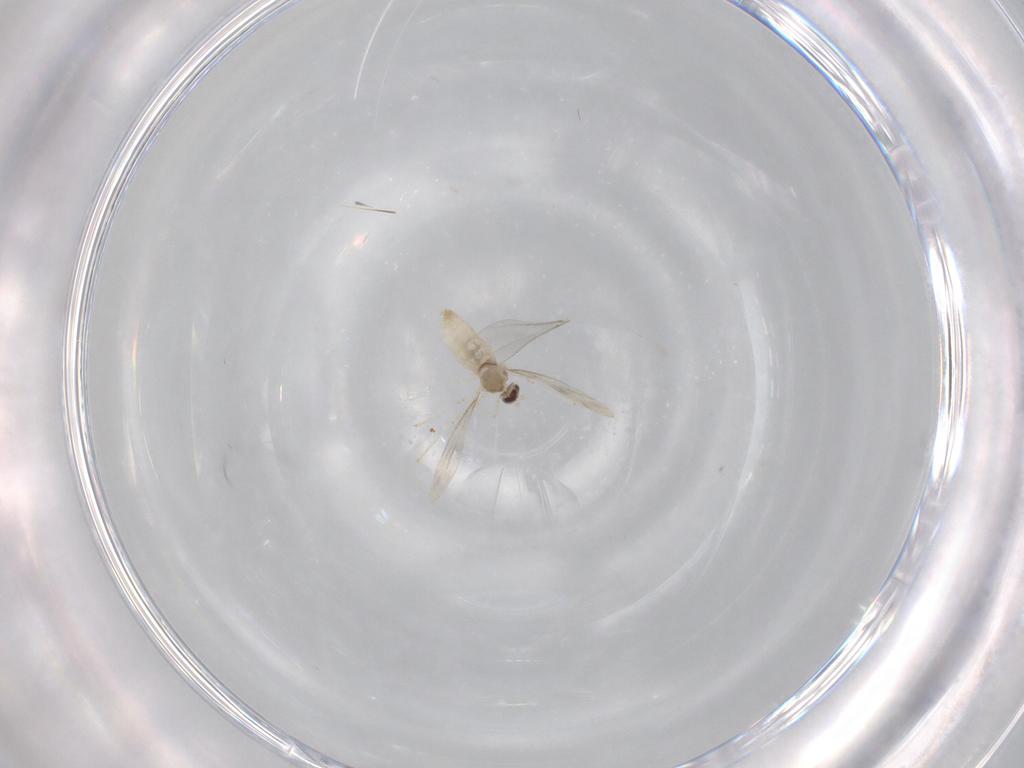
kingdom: Animalia
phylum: Arthropoda
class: Insecta
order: Diptera
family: Cecidomyiidae
